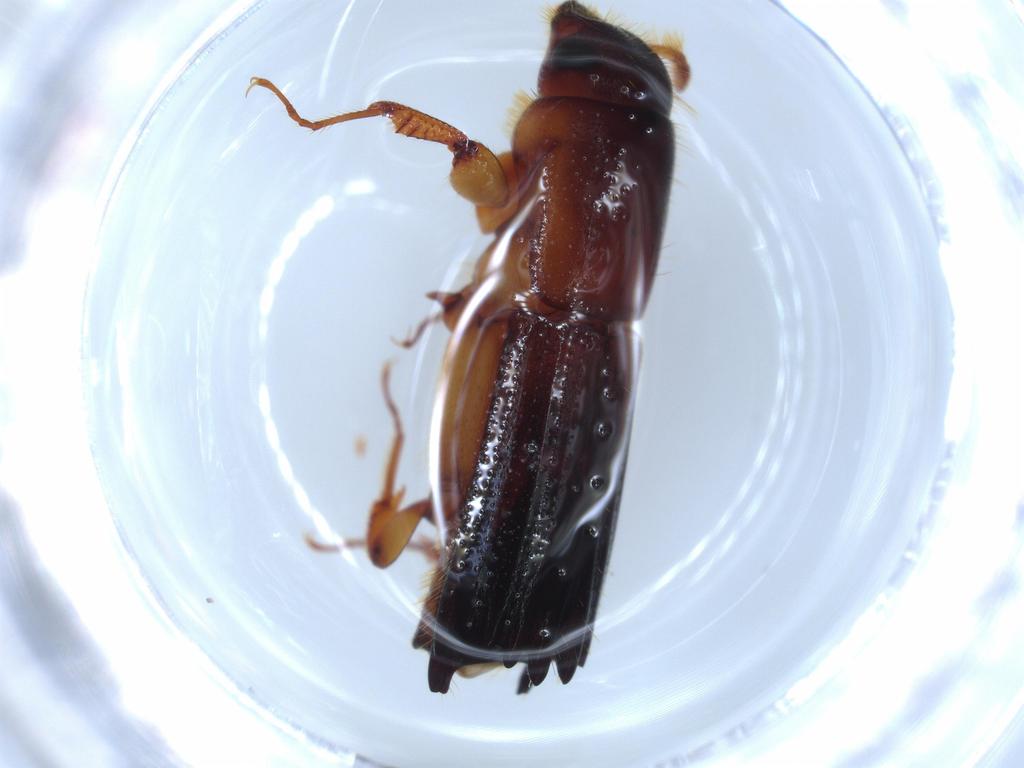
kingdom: Animalia
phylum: Arthropoda
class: Insecta
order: Coleoptera
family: Curculionidae
